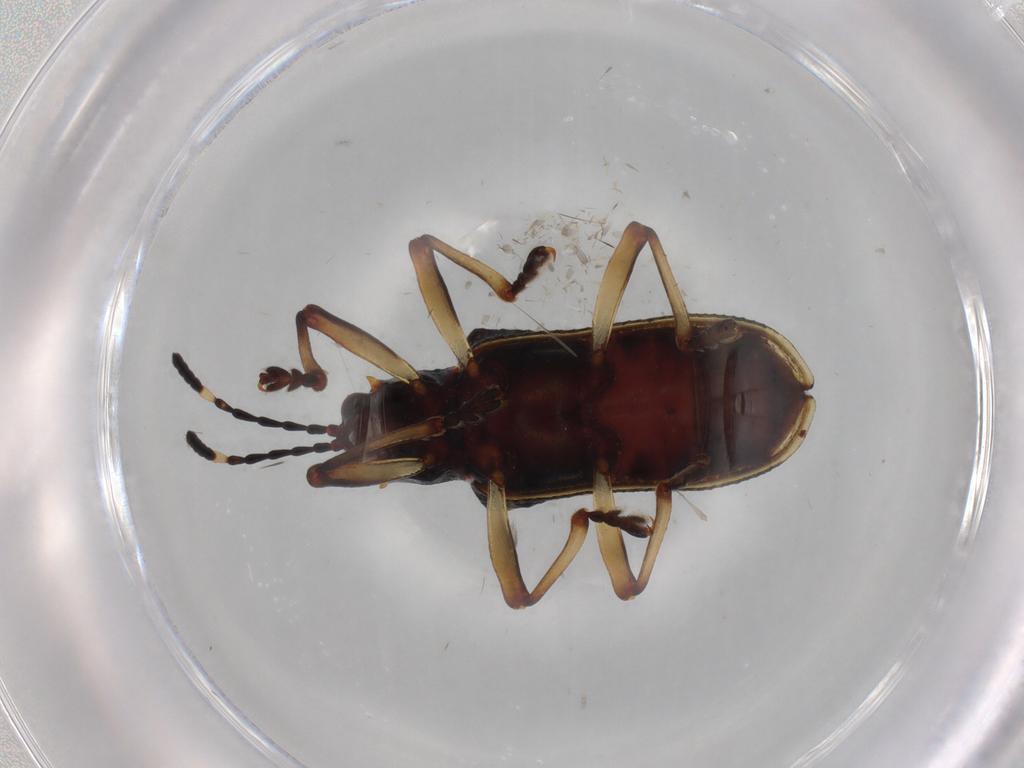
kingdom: Animalia
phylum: Arthropoda
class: Insecta
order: Coleoptera
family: Chrysomelidae
